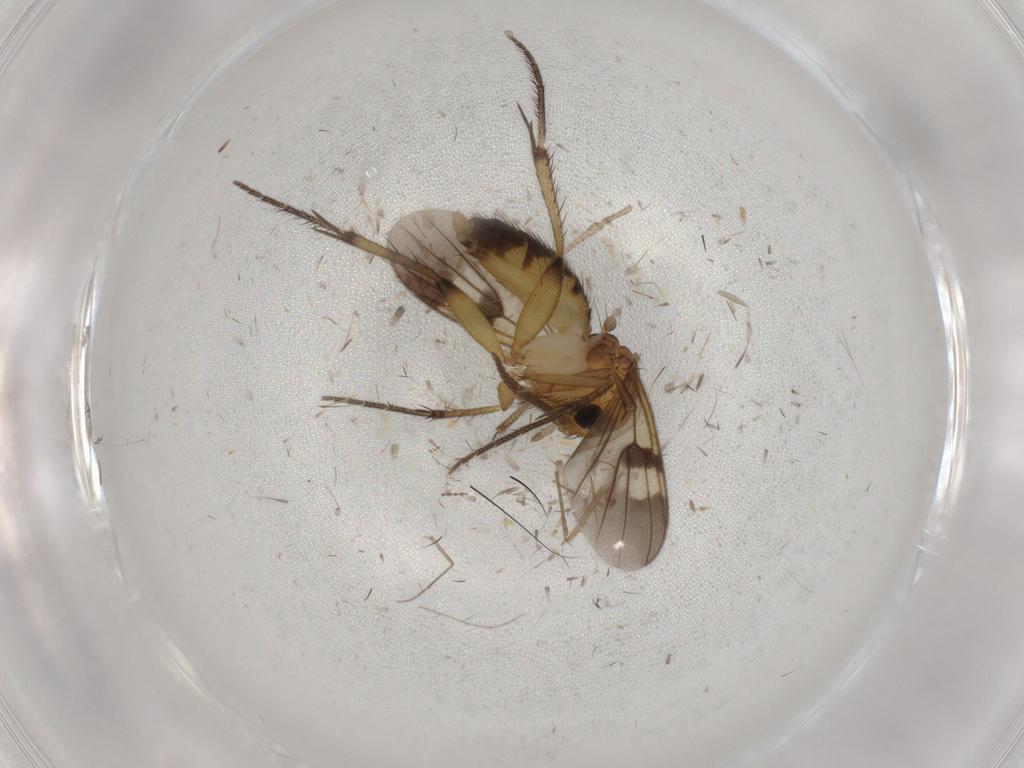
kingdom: Animalia
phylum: Arthropoda
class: Insecta
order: Diptera
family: Milichiidae
